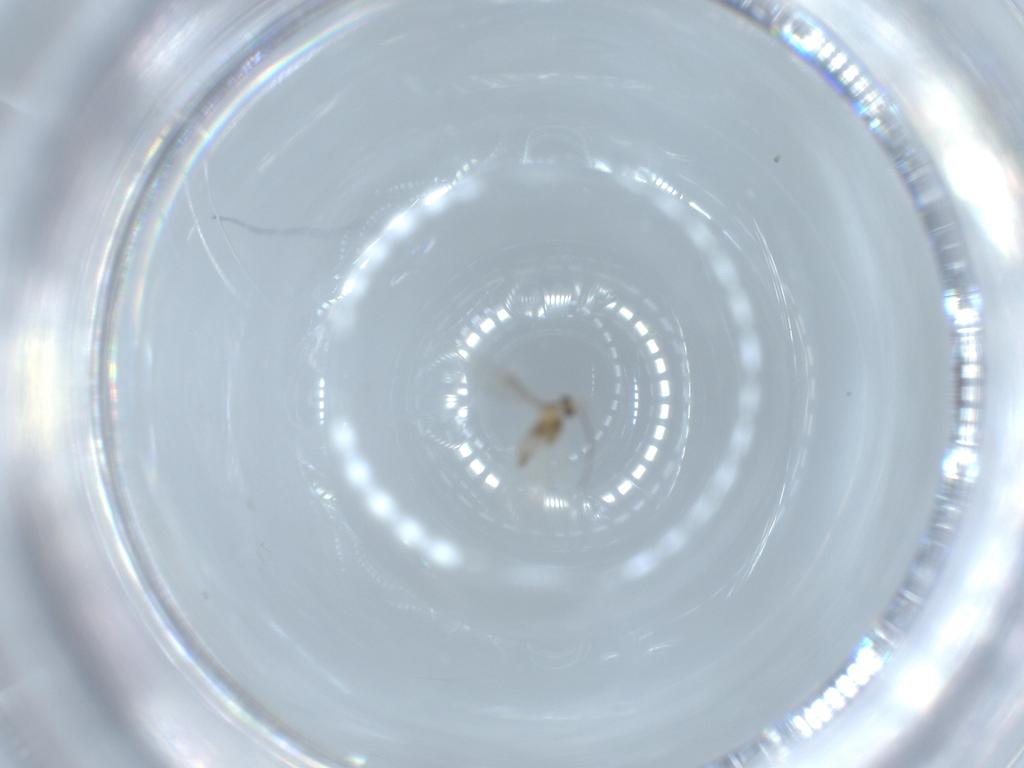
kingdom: Animalia
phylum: Arthropoda
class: Insecta
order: Diptera
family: Chironomidae
